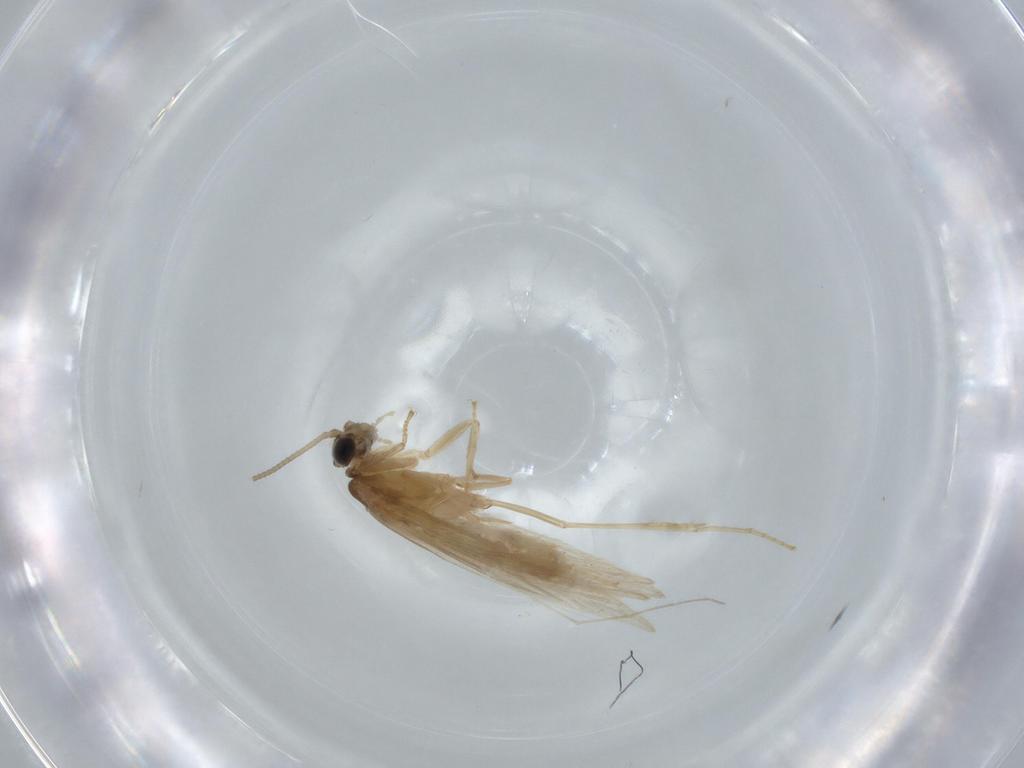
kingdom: Animalia
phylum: Arthropoda
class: Insecta
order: Trichoptera
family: Hydroptilidae
